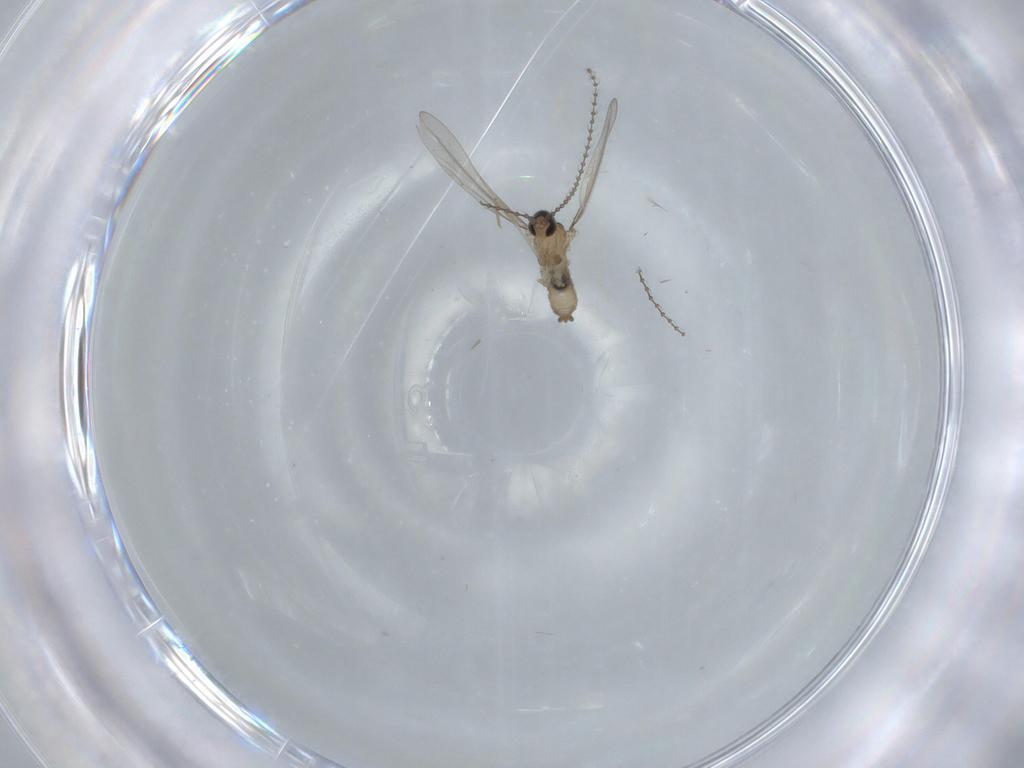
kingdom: Animalia
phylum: Arthropoda
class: Insecta
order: Diptera
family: Cecidomyiidae
